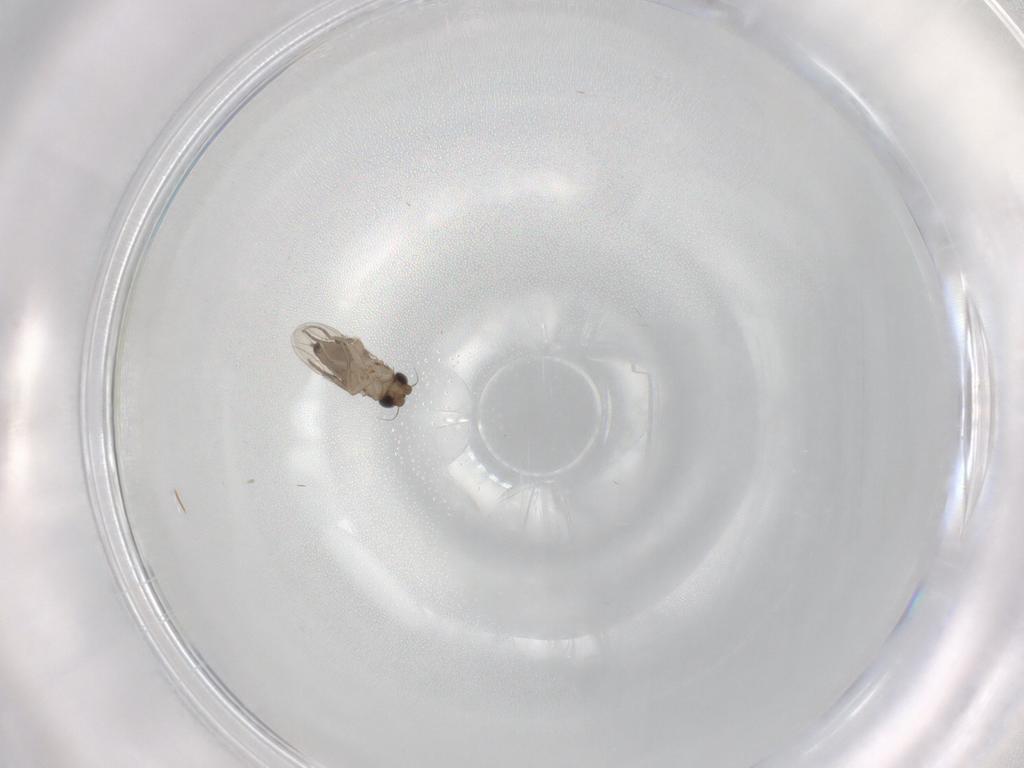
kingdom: Animalia
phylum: Arthropoda
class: Insecta
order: Diptera
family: Phoridae
